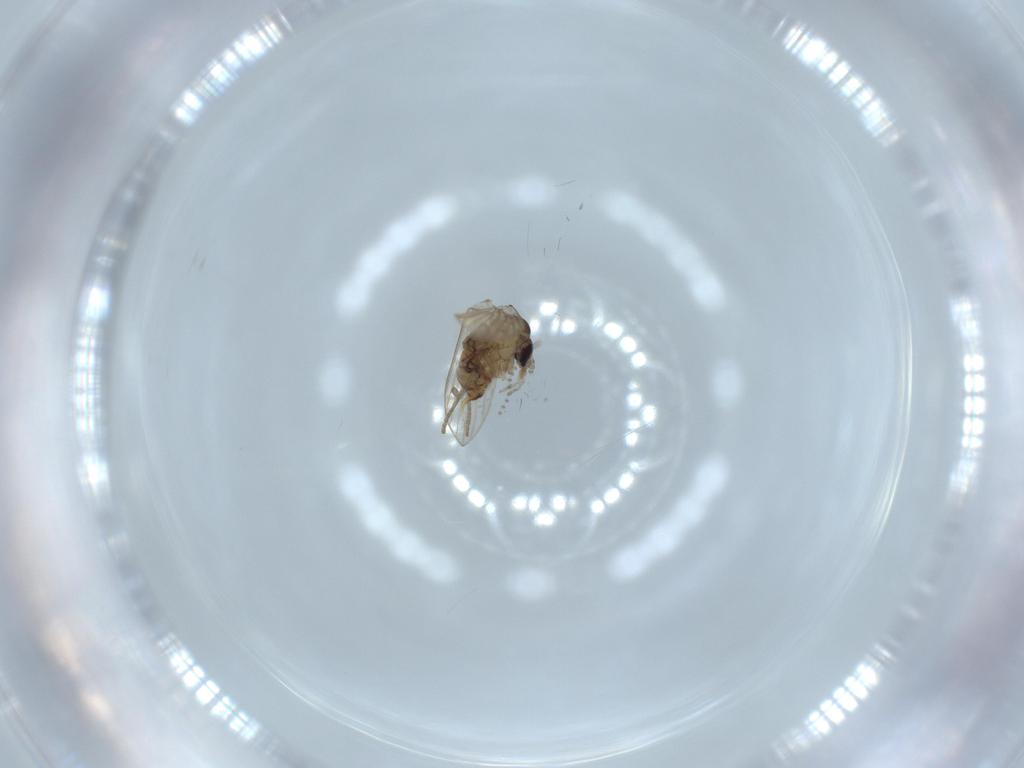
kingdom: Animalia
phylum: Arthropoda
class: Insecta
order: Diptera
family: Psychodidae
